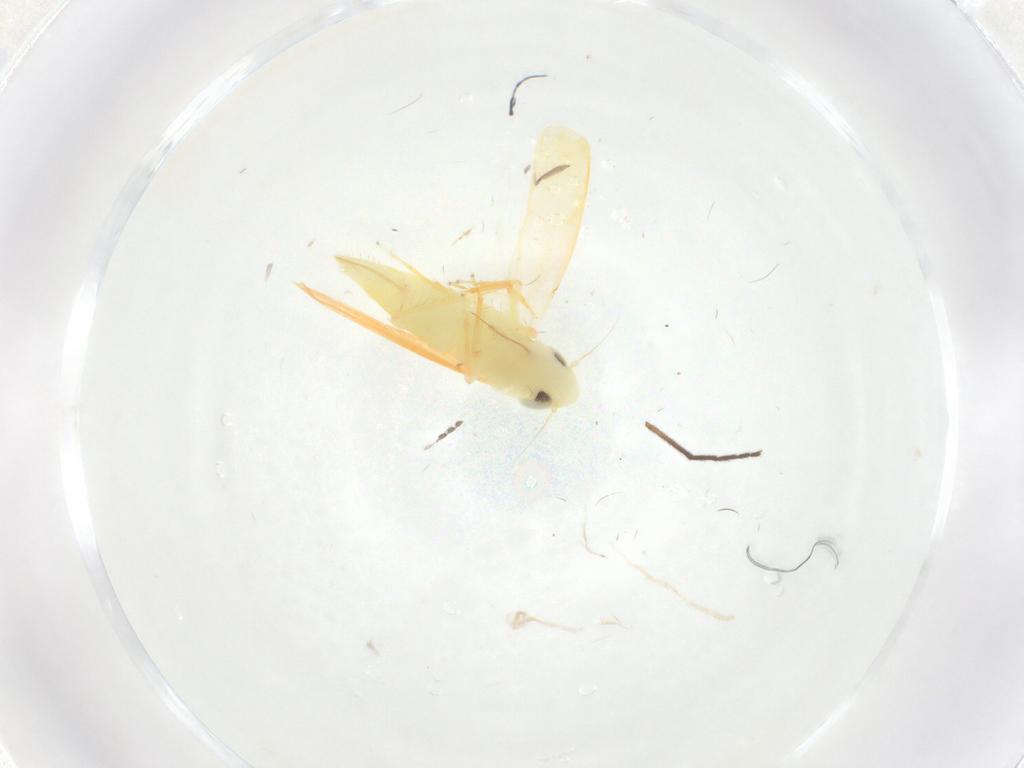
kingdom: Animalia
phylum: Arthropoda
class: Insecta
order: Hemiptera
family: Cicadellidae
